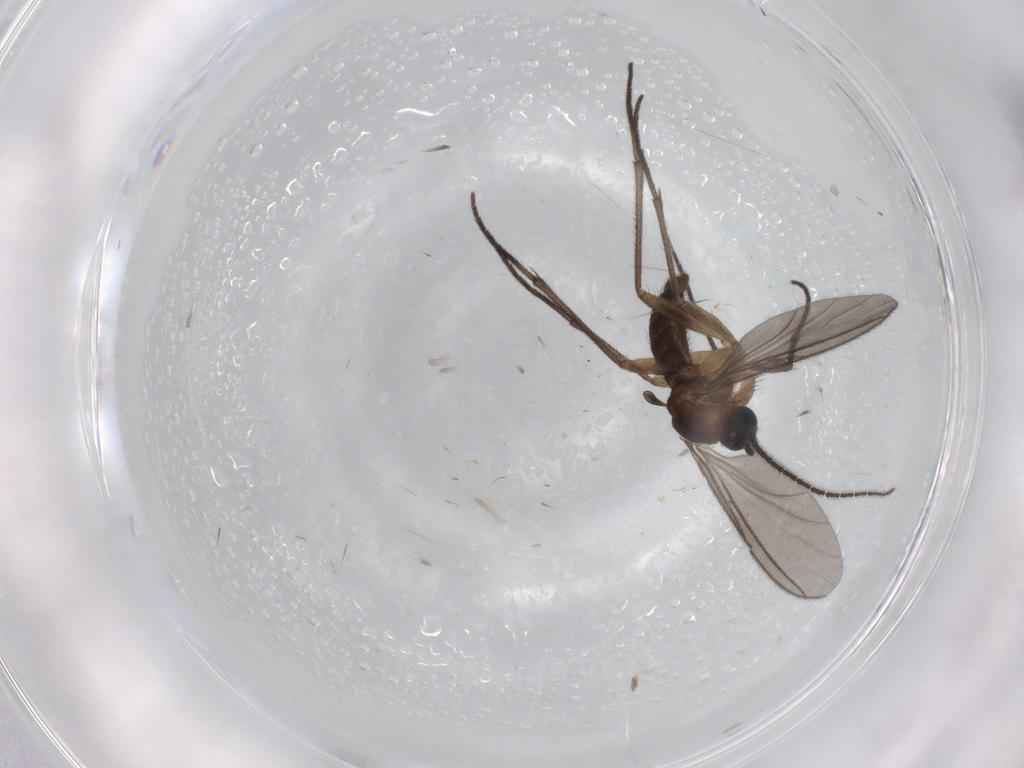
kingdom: Animalia
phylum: Arthropoda
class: Insecta
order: Diptera
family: Sciaridae
